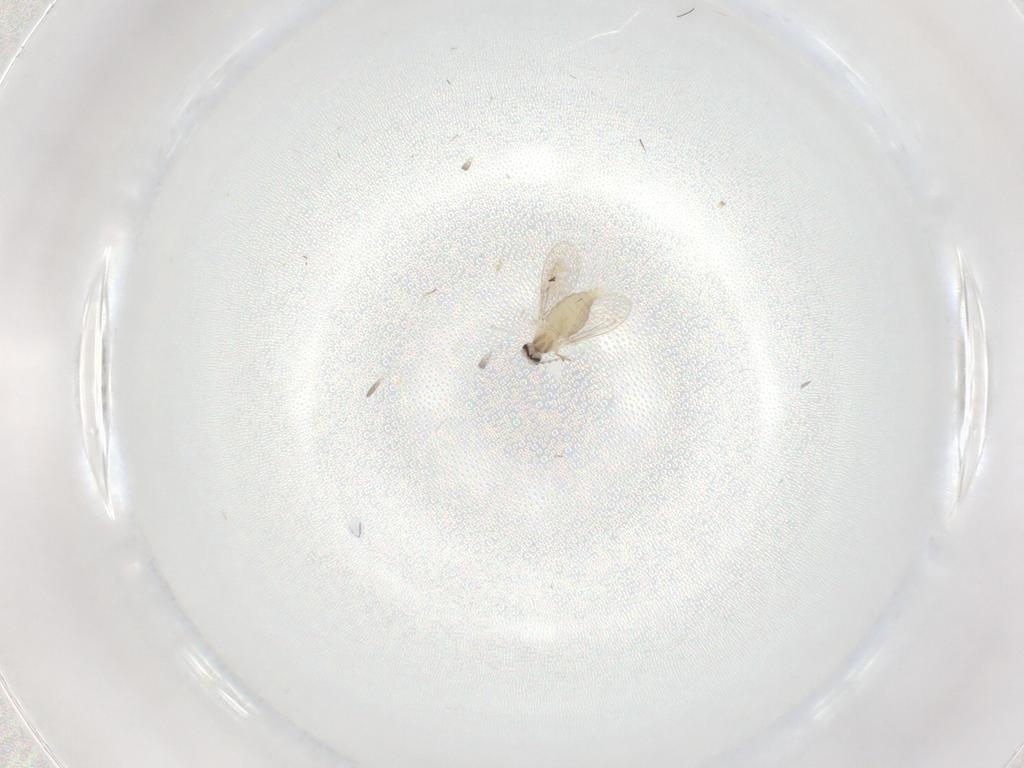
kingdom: Animalia
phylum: Arthropoda
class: Insecta
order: Diptera
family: Cecidomyiidae
